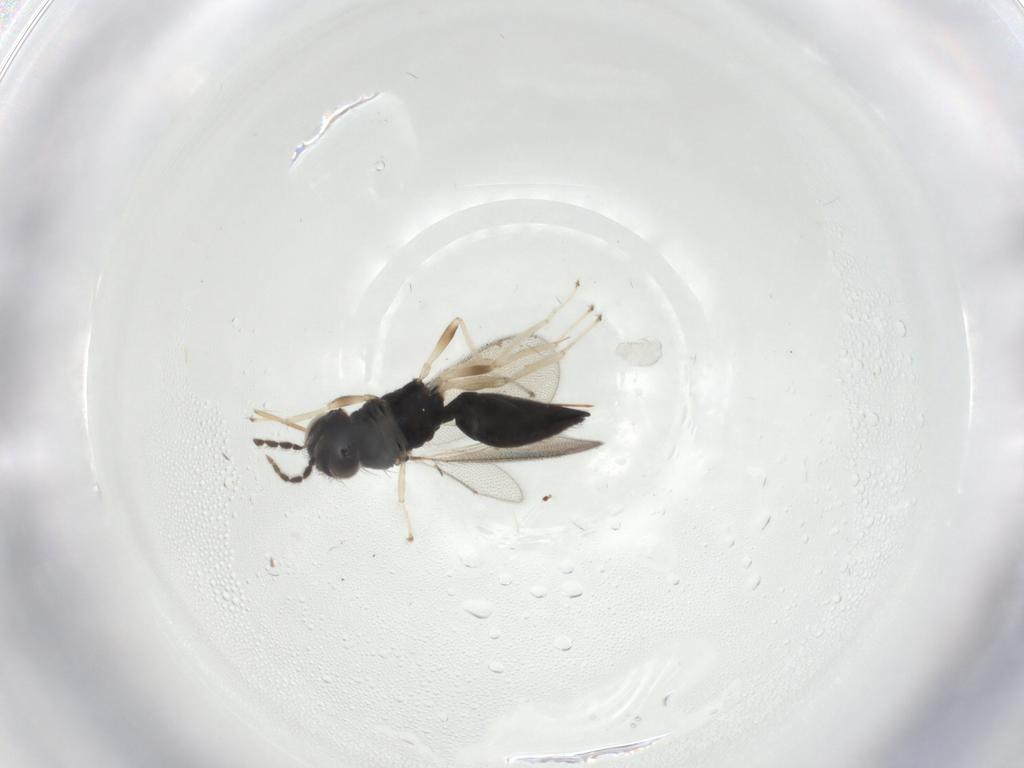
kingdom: Animalia
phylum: Arthropoda
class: Insecta
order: Hymenoptera
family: Eulophidae
